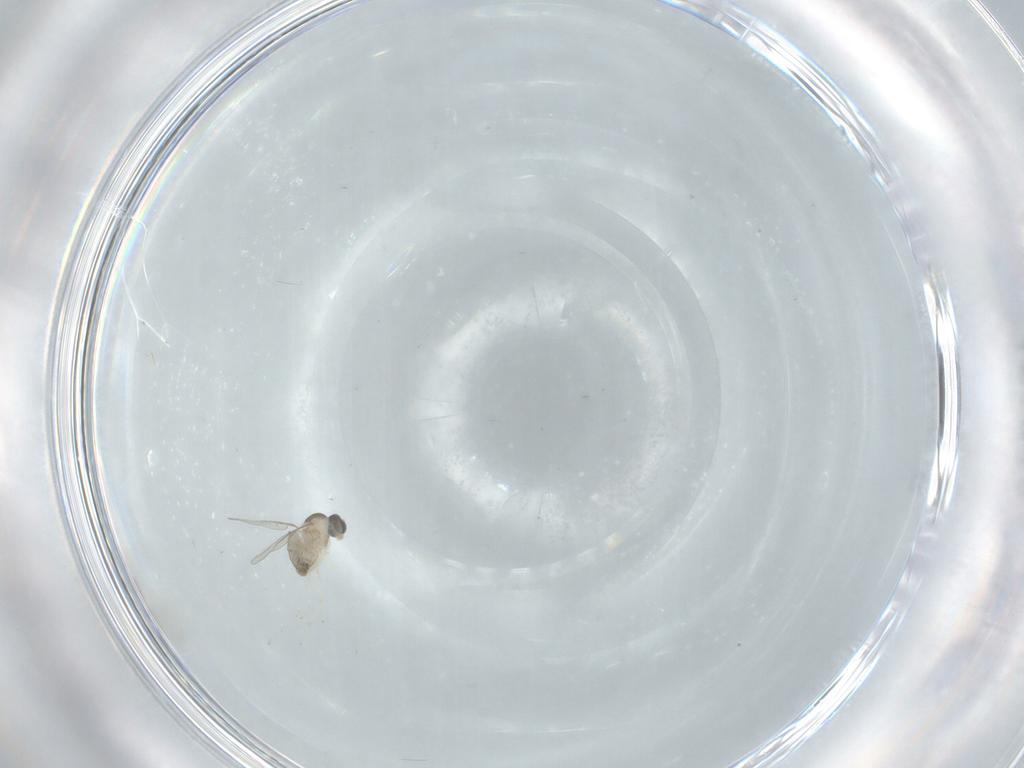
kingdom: Animalia
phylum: Arthropoda
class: Insecta
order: Diptera
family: Cecidomyiidae
